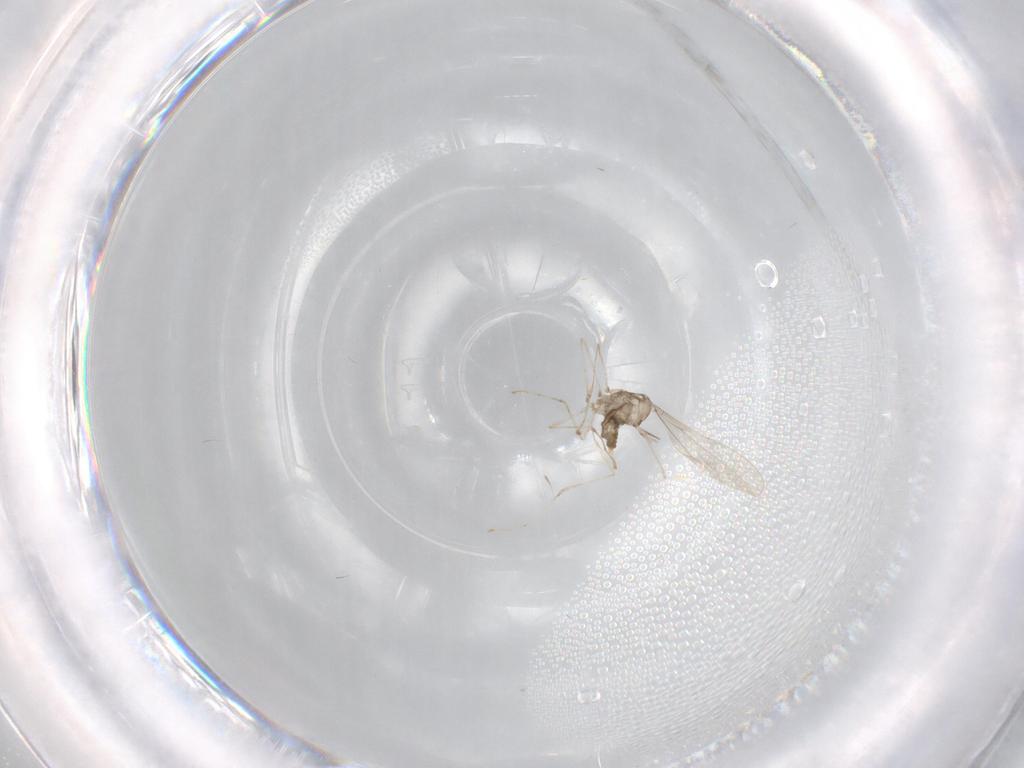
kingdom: Animalia
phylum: Arthropoda
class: Insecta
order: Diptera
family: Cecidomyiidae
